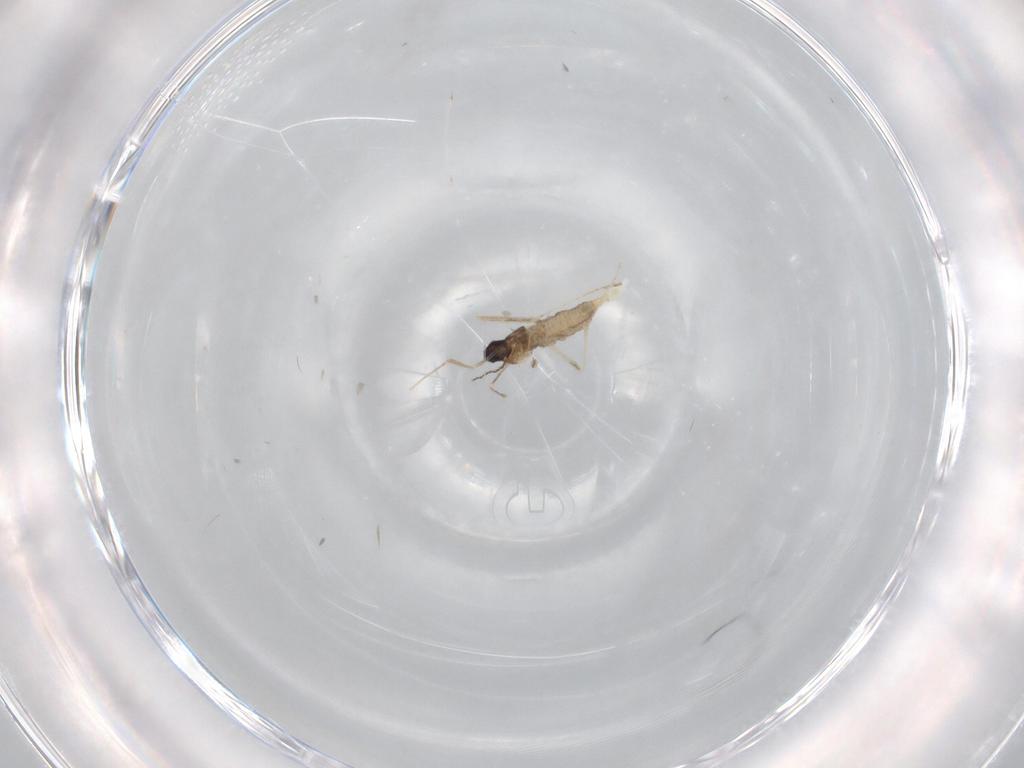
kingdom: Animalia
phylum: Arthropoda
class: Insecta
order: Diptera
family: Cecidomyiidae
